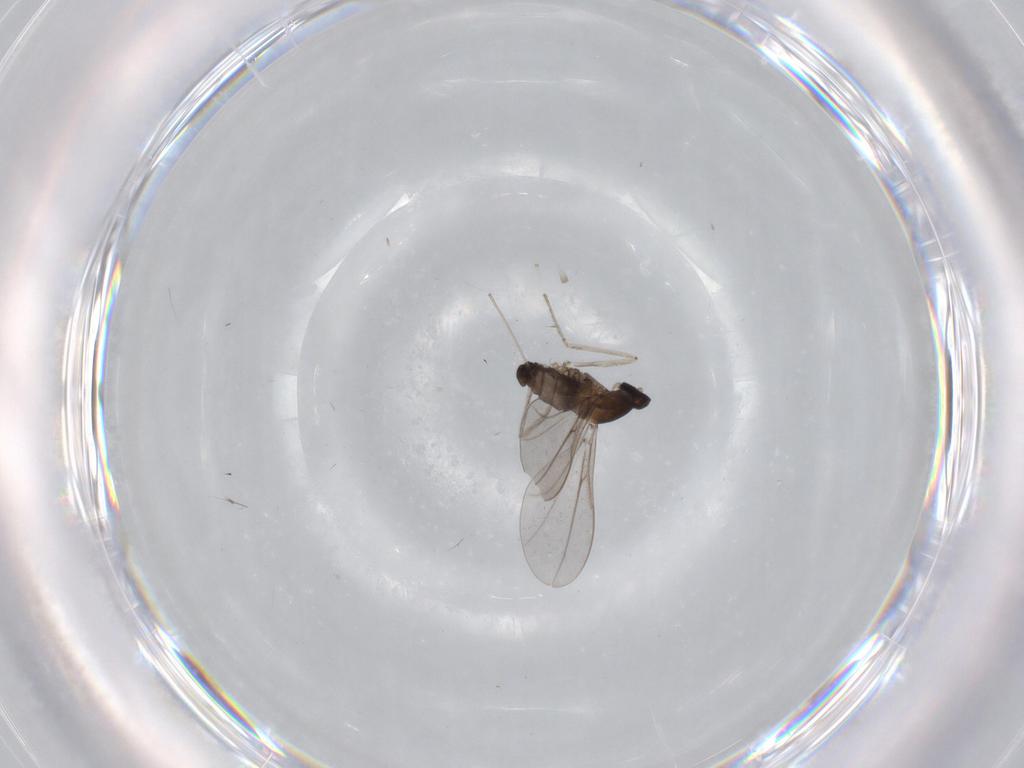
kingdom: Animalia
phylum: Arthropoda
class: Insecta
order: Diptera
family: Cecidomyiidae
